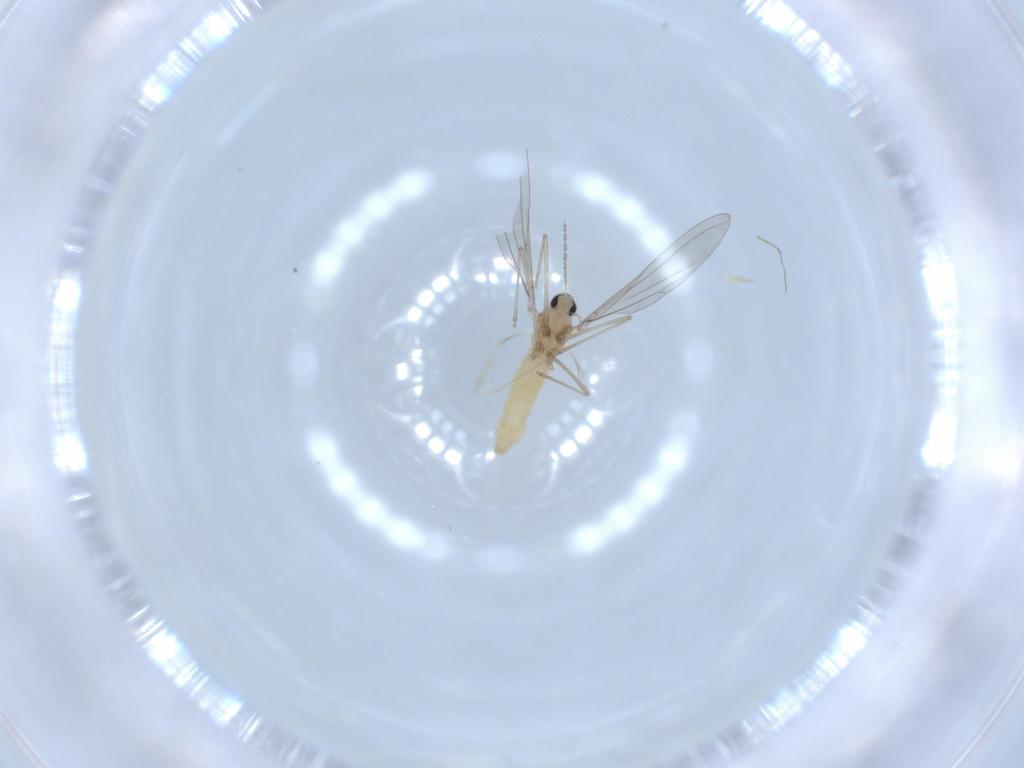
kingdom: Animalia
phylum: Arthropoda
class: Insecta
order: Diptera
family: Cecidomyiidae
